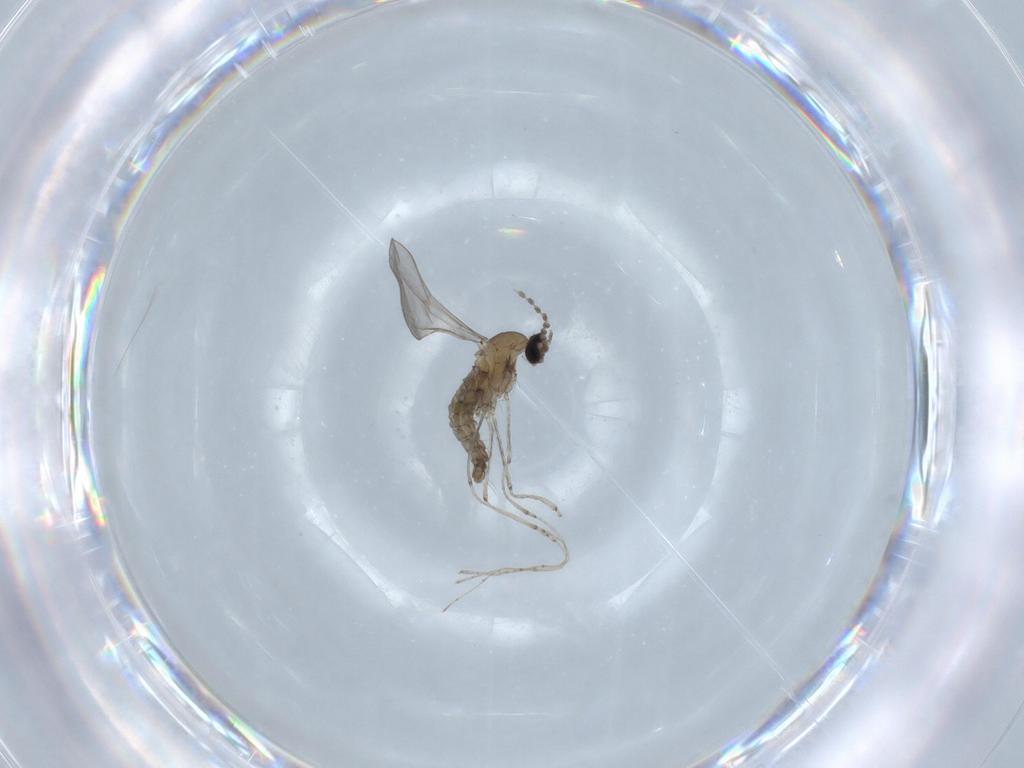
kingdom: Animalia
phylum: Arthropoda
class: Insecta
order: Diptera
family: Cecidomyiidae
